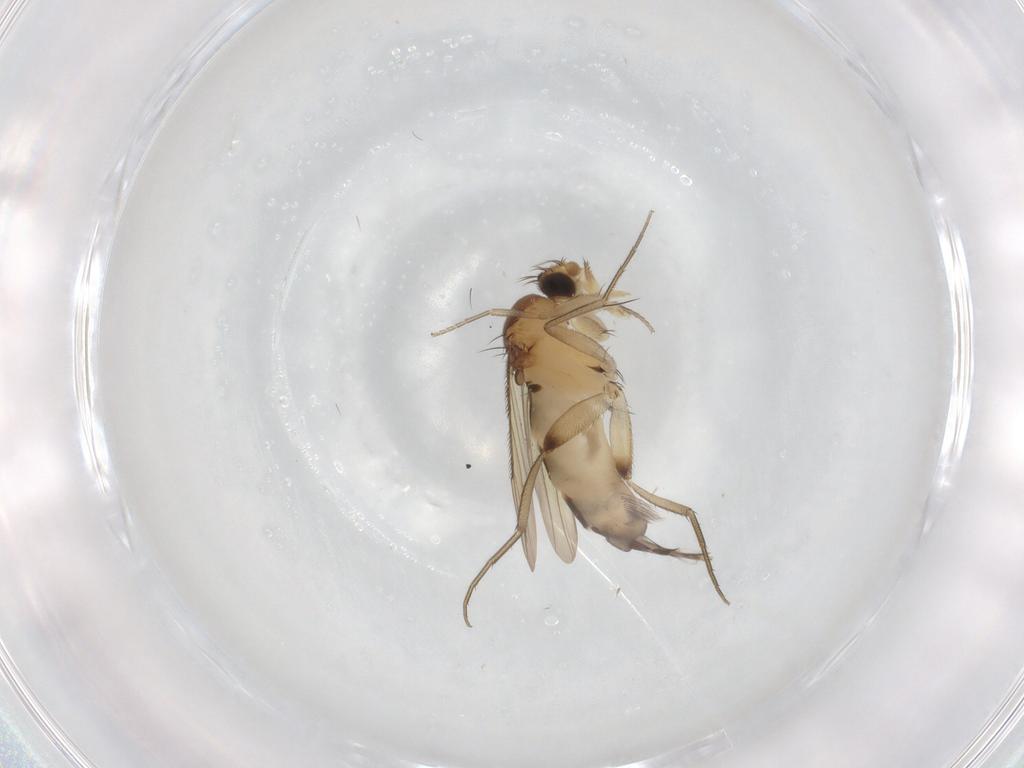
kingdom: Animalia
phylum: Arthropoda
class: Insecta
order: Diptera
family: Phoridae
